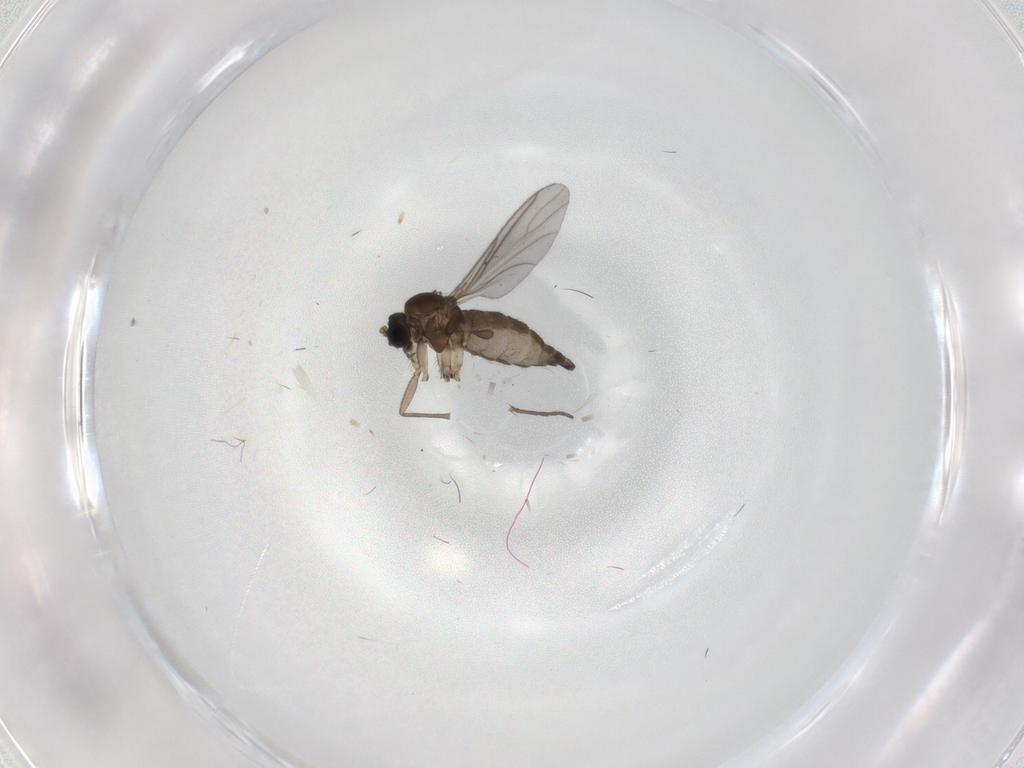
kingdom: Animalia
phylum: Arthropoda
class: Insecta
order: Diptera
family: Sciaridae
